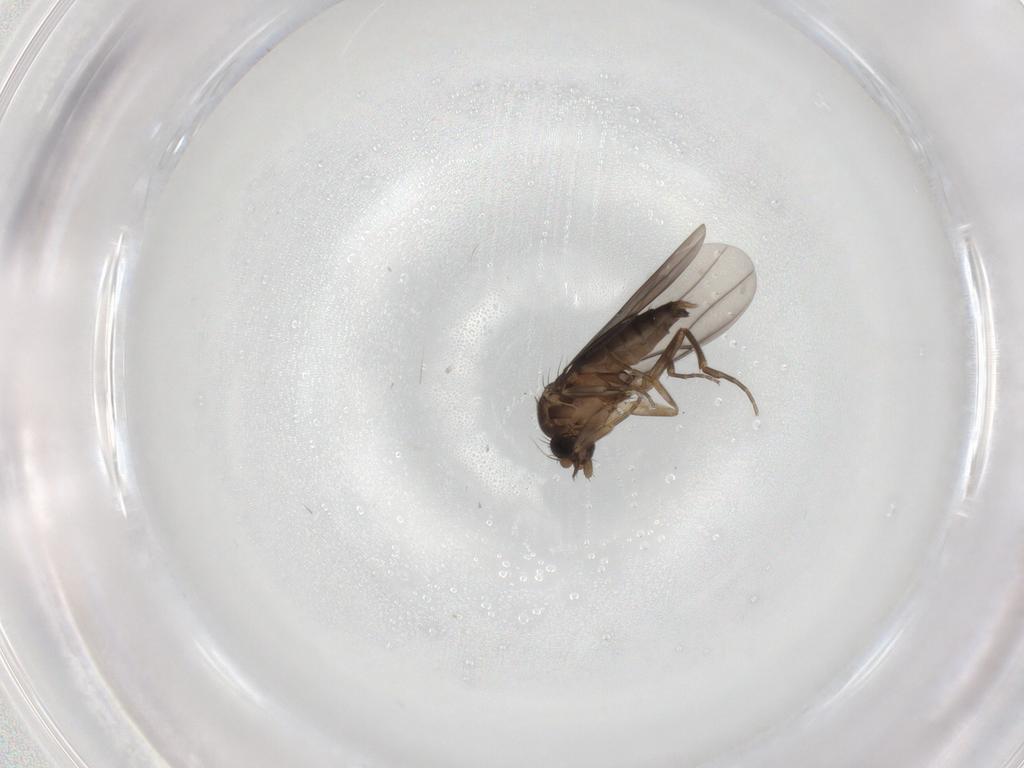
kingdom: Animalia
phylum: Arthropoda
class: Insecta
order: Diptera
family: Phoridae
